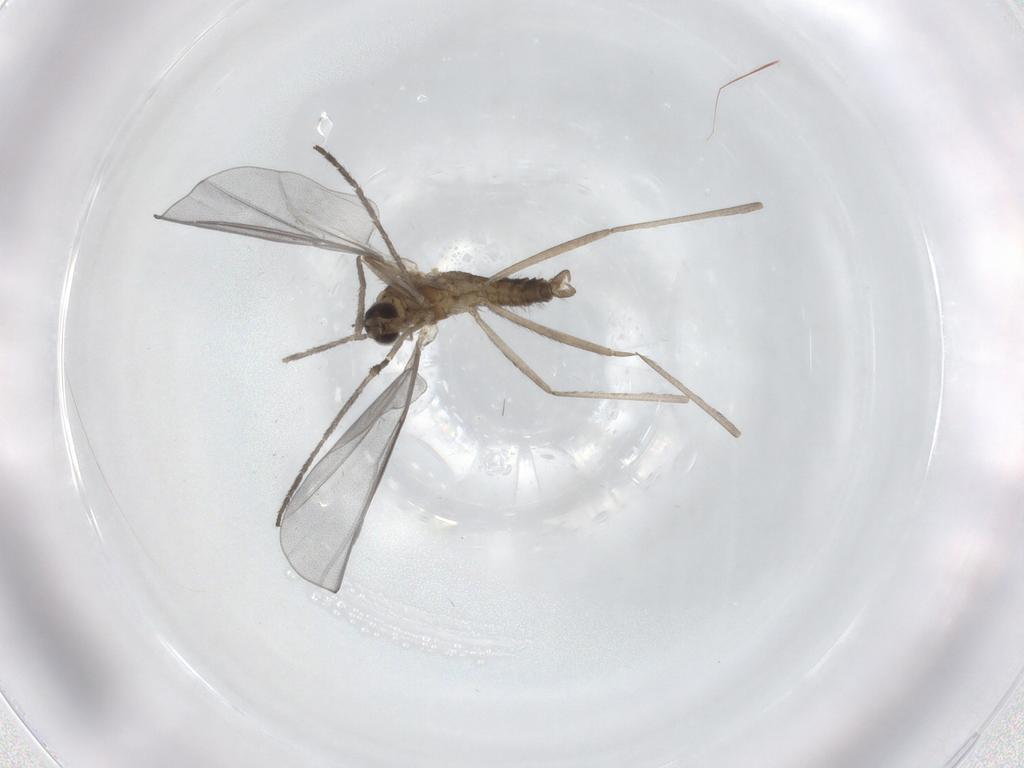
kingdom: Animalia
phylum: Arthropoda
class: Insecta
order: Diptera
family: Cecidomyiidae
